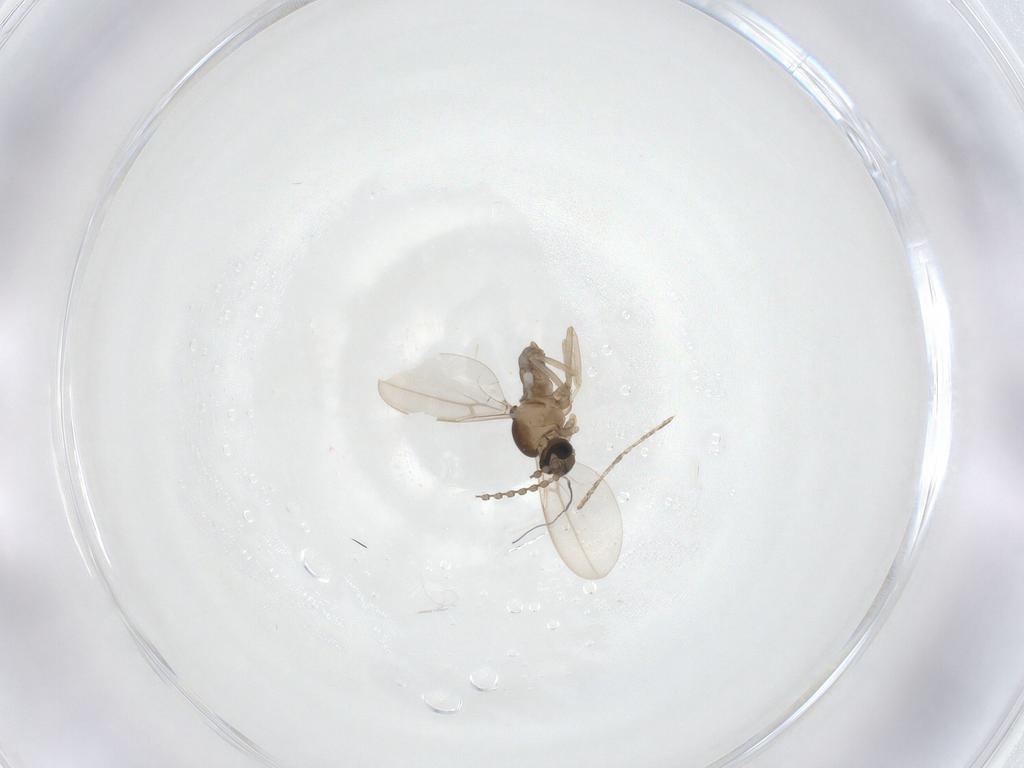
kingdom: Animalia
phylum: Arthropoda
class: Insecta
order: Diptera
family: Cecidomyiidae
